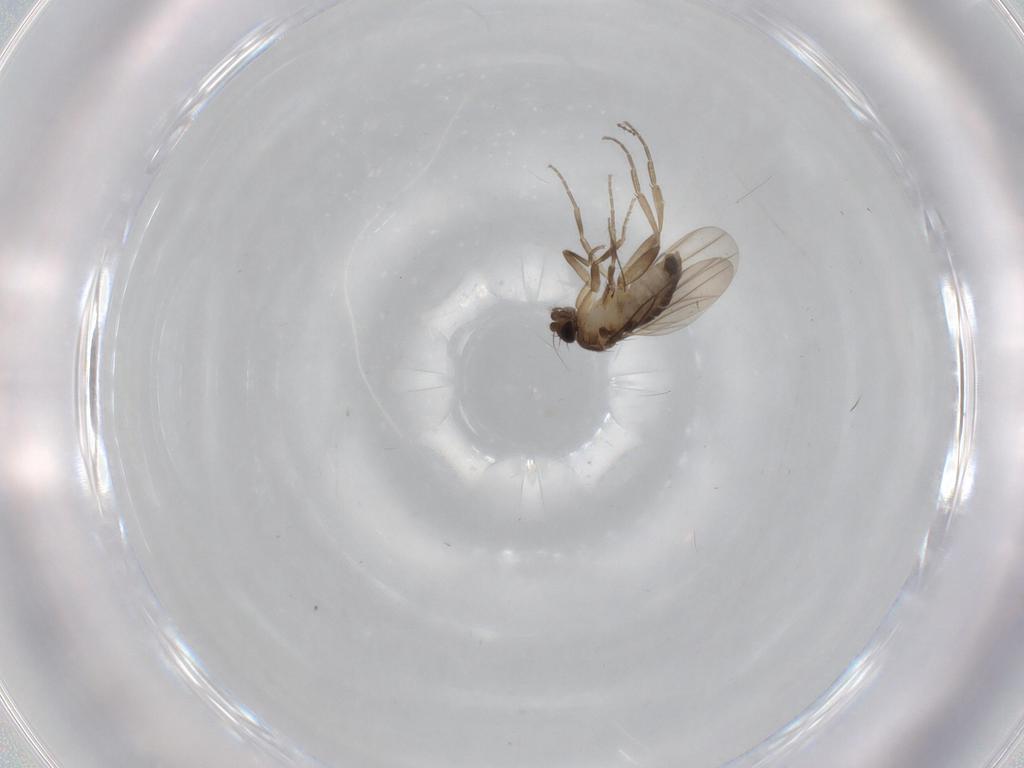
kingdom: Animalia
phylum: Arthropoda
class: Insecta
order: Diptera
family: Phoridae
